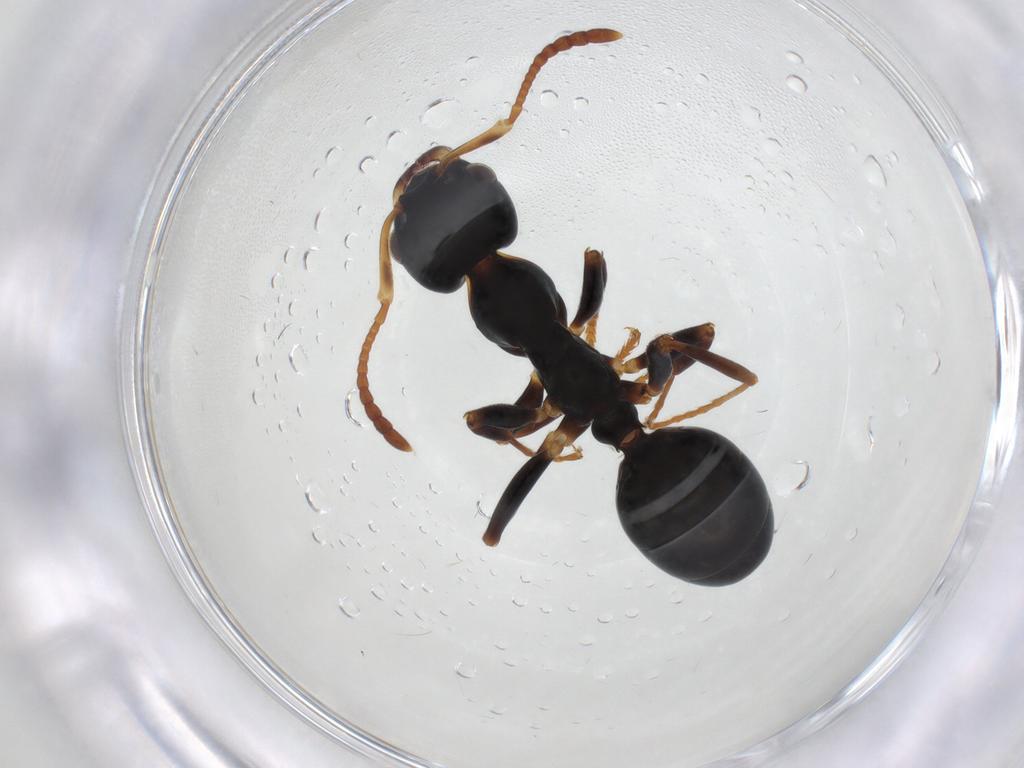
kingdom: Animalia
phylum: Arthropoda
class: Insecta
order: Hymenoptera
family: Formicidae
